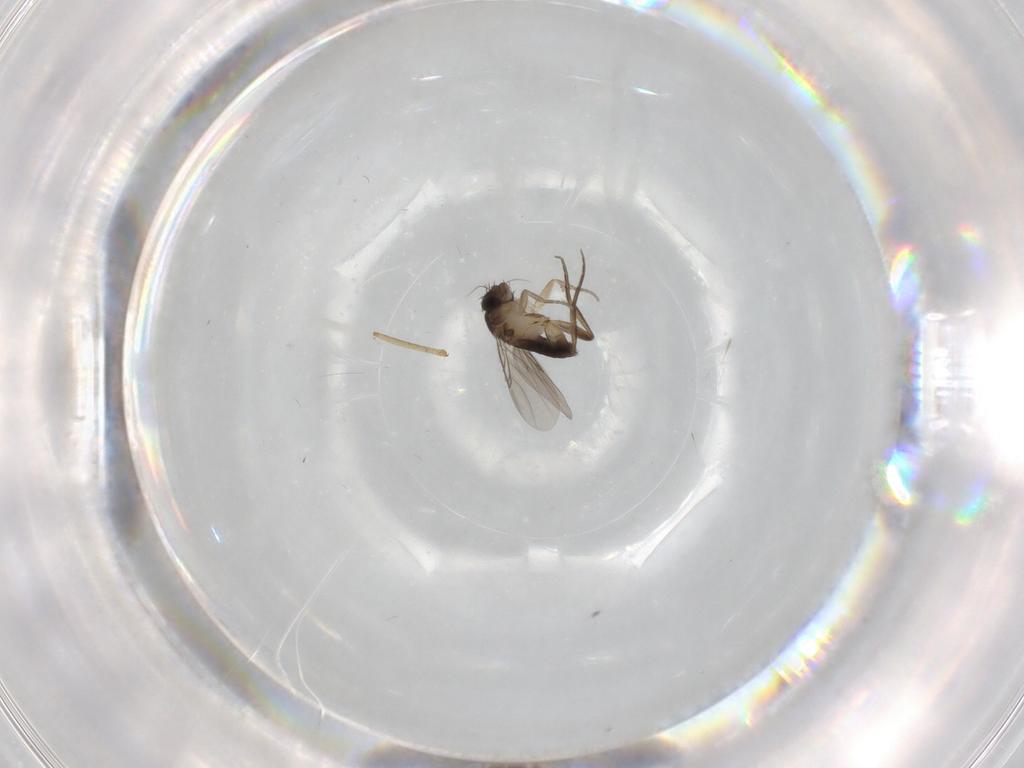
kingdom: Animalia
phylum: Arthropoda
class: Insecta
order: Diptera
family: Phoridae
